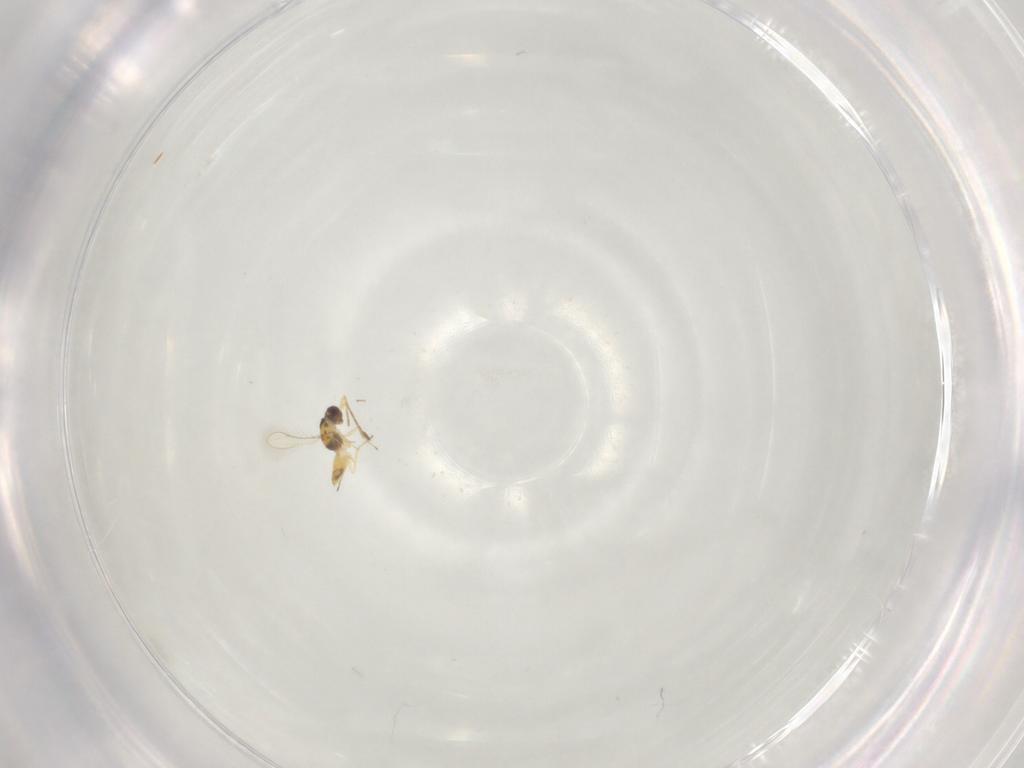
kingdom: Animalia
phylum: Arthropoda
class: Insecta
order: Hymenoptera
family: Mymaridae
